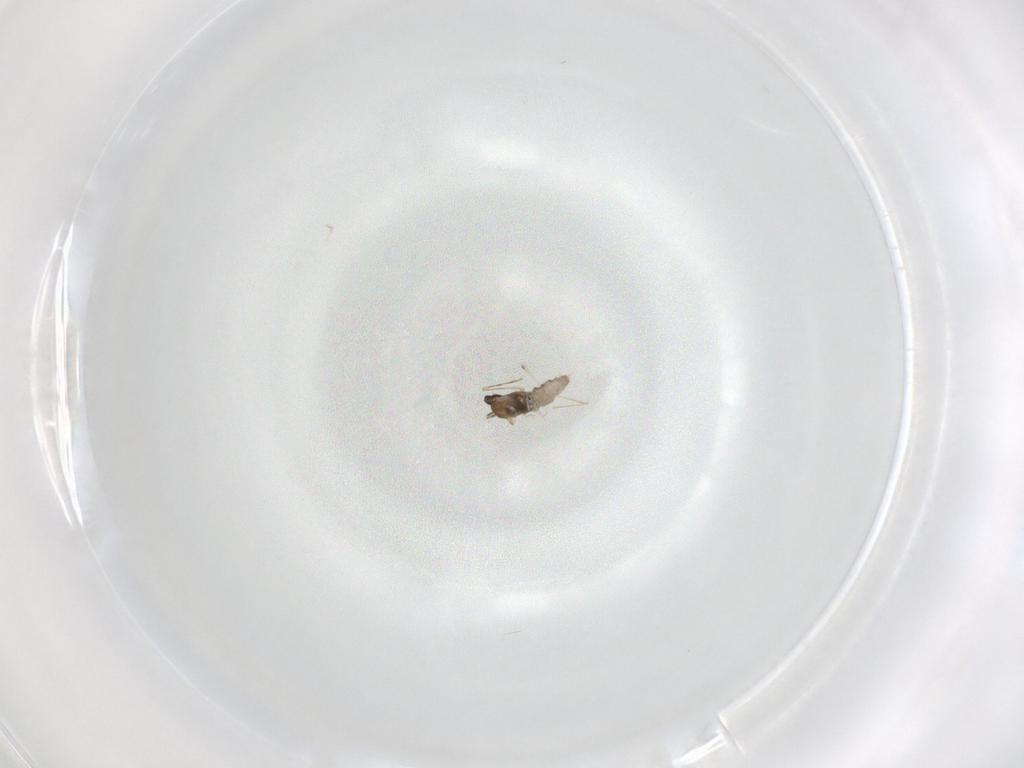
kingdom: Animalia
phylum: Arthropoda
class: Insecta
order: Diptera
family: Cecidomyiidae
